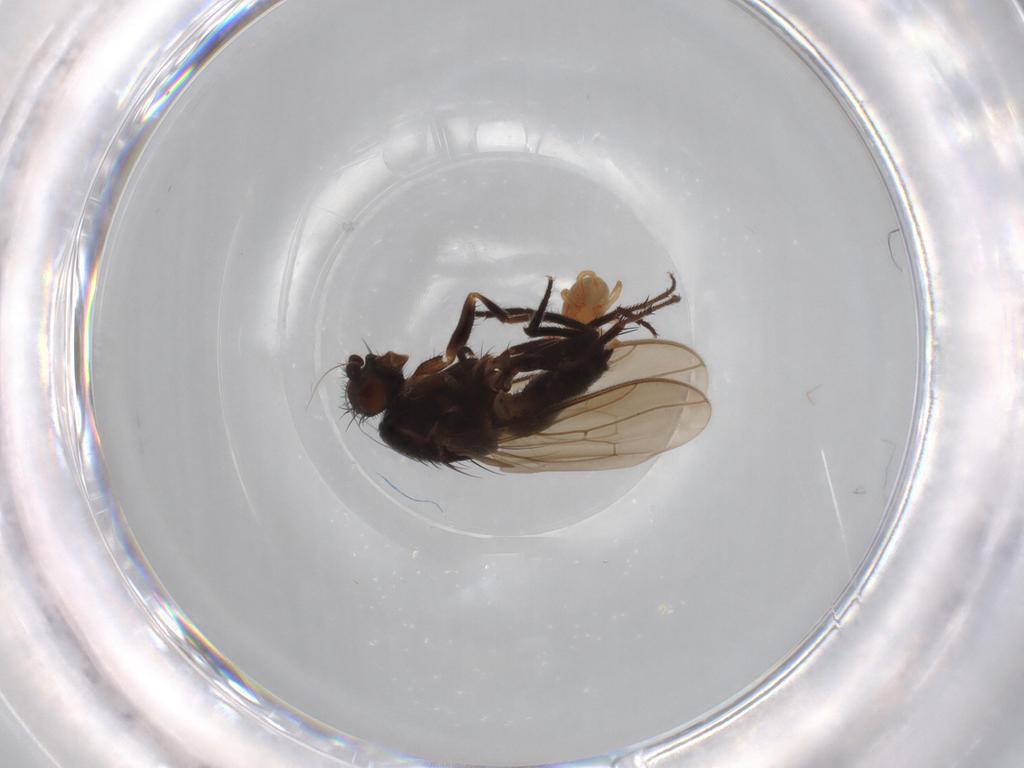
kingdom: Animalia
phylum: Arthropoda
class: Insecta
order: Diptera
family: Sphaeroceridae
